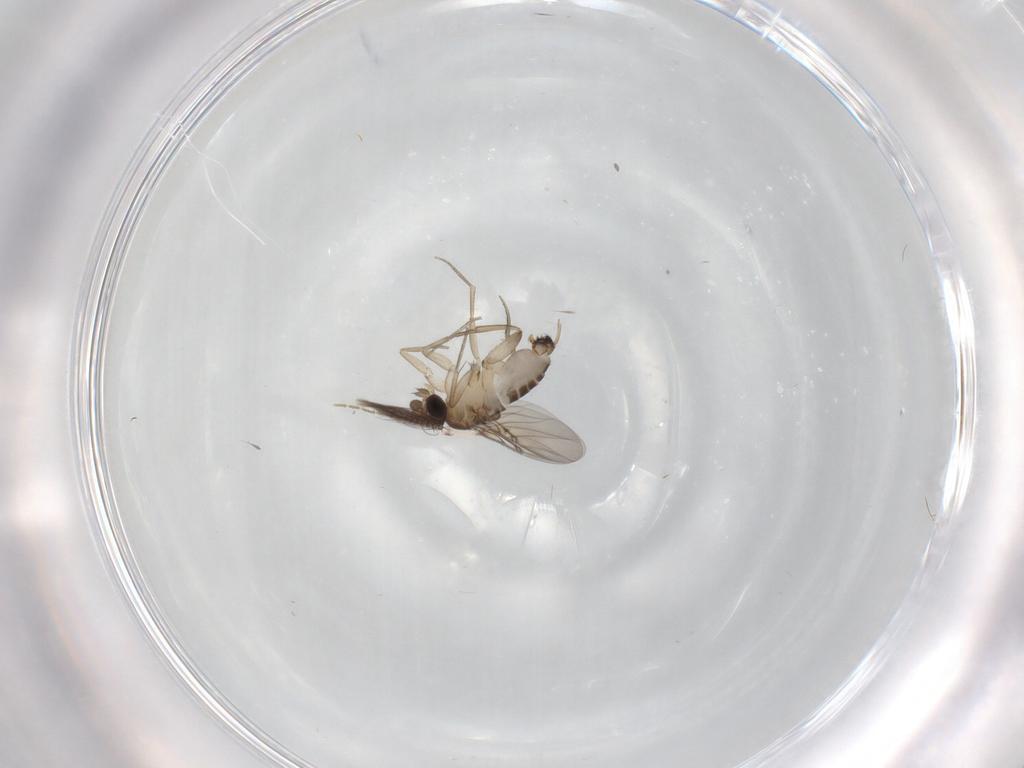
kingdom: Animalia
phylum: Arthropoda
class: Insecta
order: Diptera
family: Phoridae
